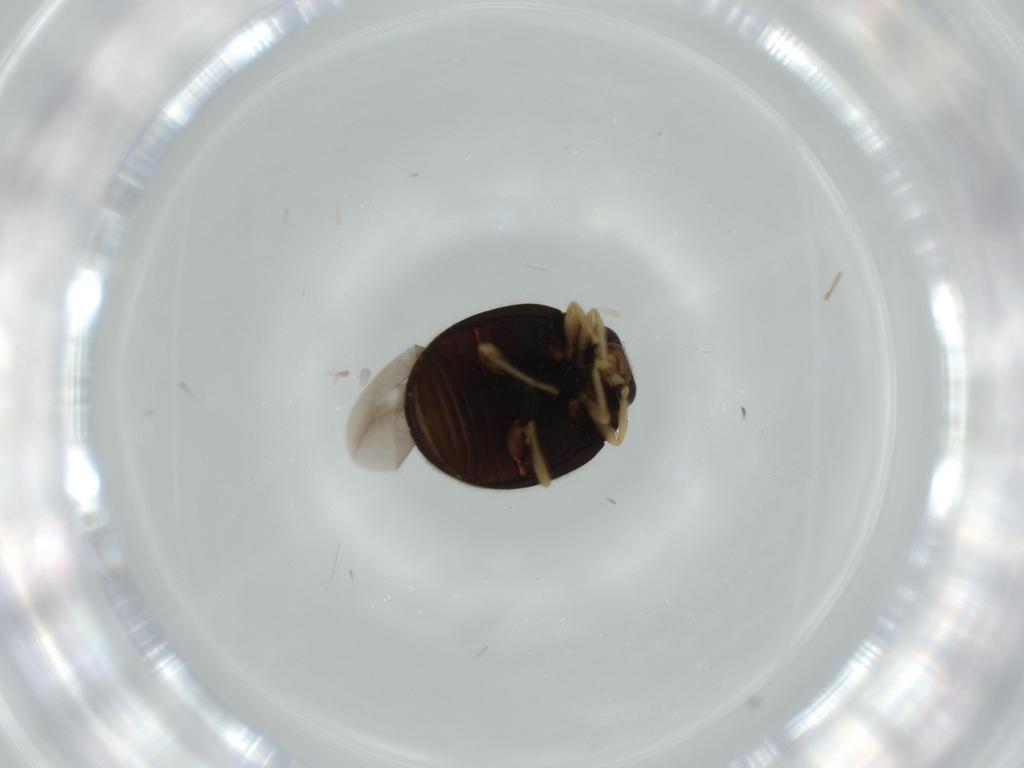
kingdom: Animalia
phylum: Arthropoda
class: Insecta
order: Coleoptera
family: Coccinellidae
